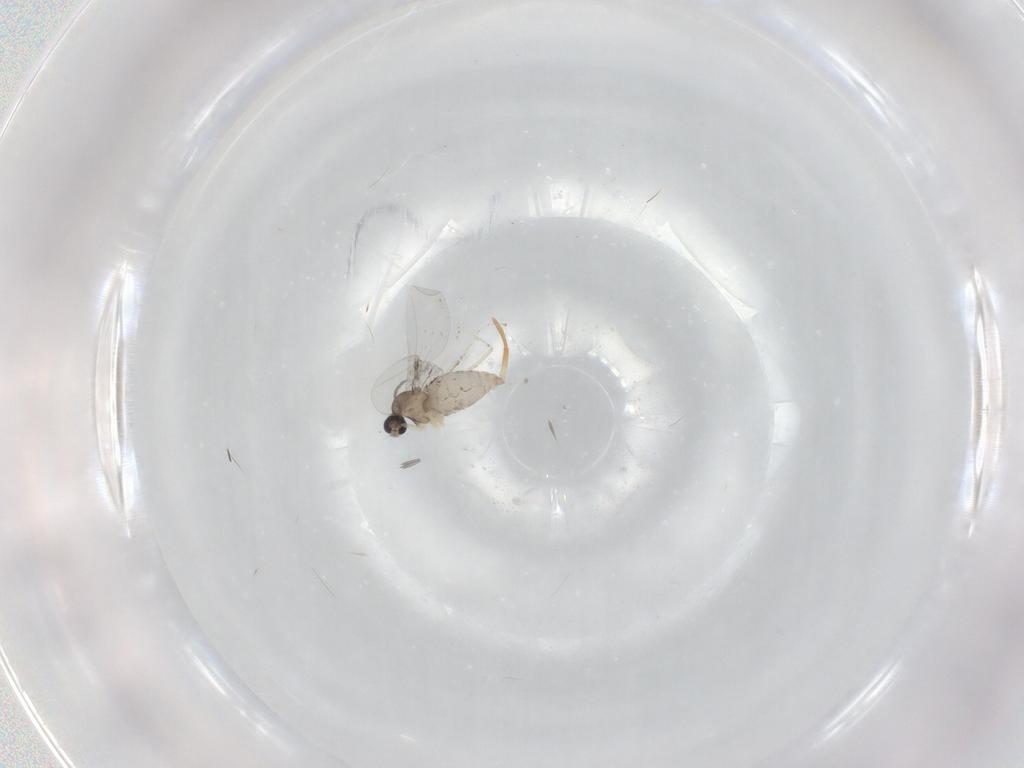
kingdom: Animalia
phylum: Arthropoda
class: Insecta
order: Diptera
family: Cecidomyiidae
